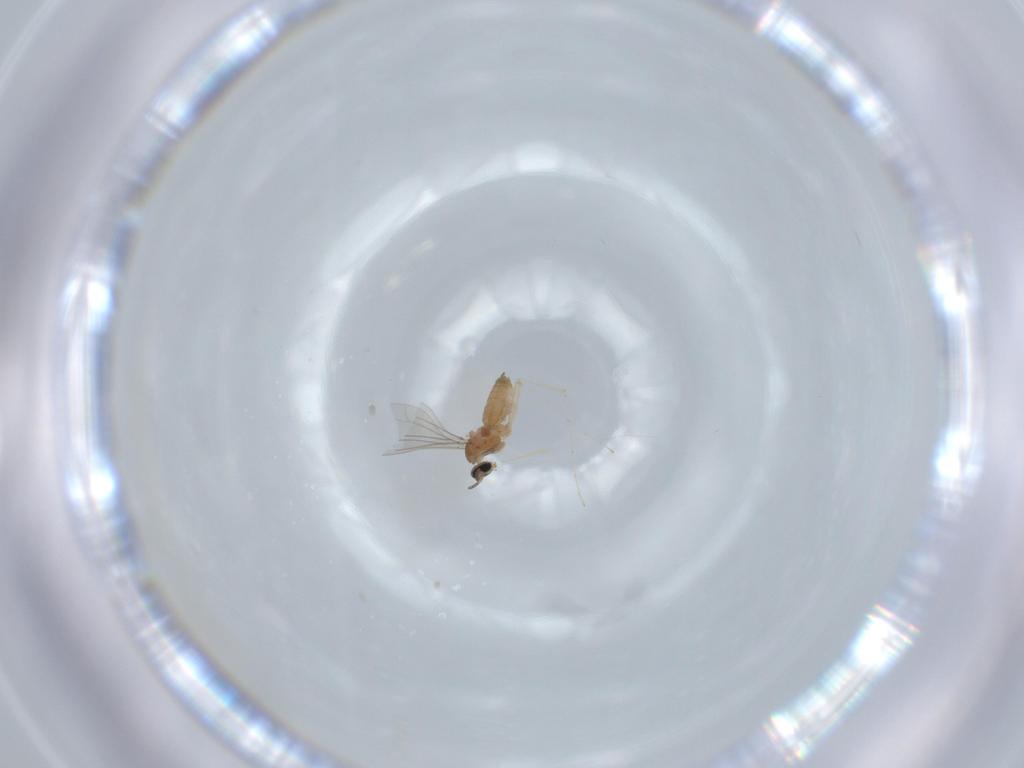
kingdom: Animalia
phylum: Arthropoda
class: Insecta
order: Diptera
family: Cecidomyiidae
